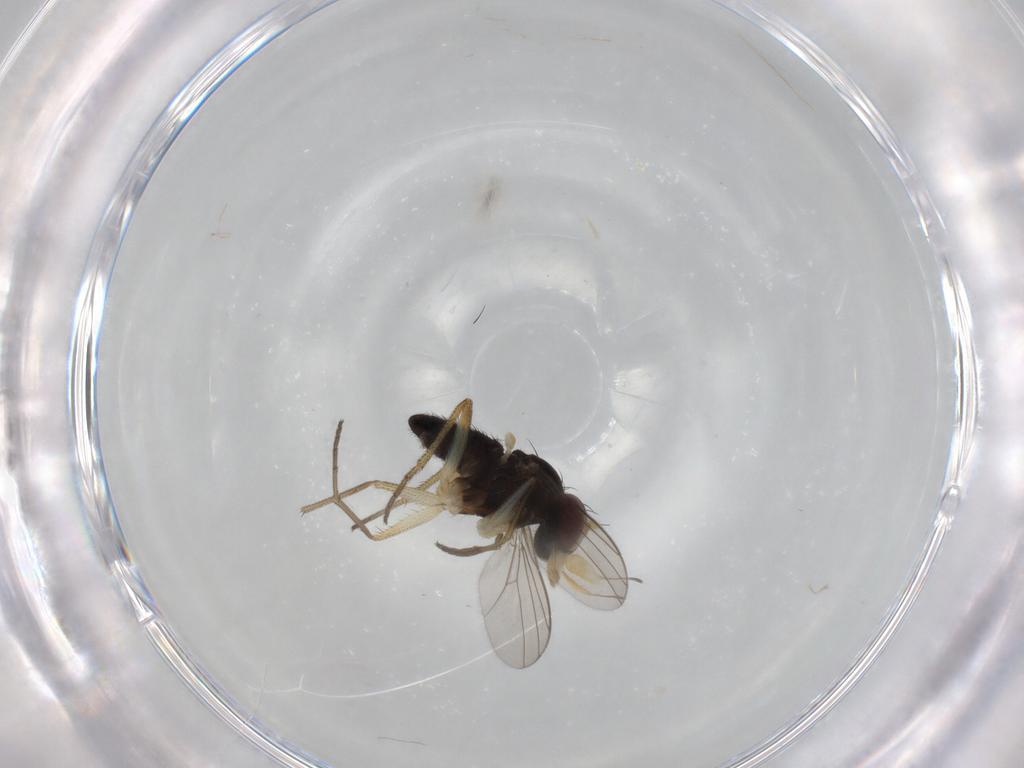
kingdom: Animalia
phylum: Arthropoda
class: Insecta
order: Diptera
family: Dolichopodidae
